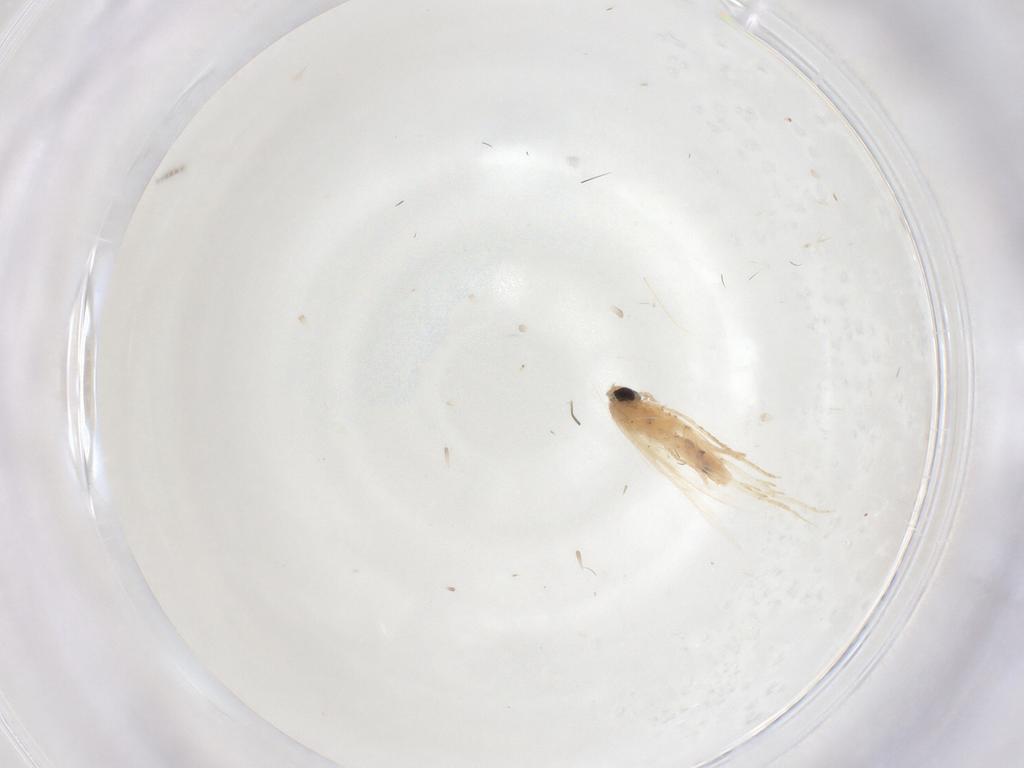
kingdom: Animalia
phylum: Arthropoda
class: Insecta
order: Lepidoptera
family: Nepticulidae
